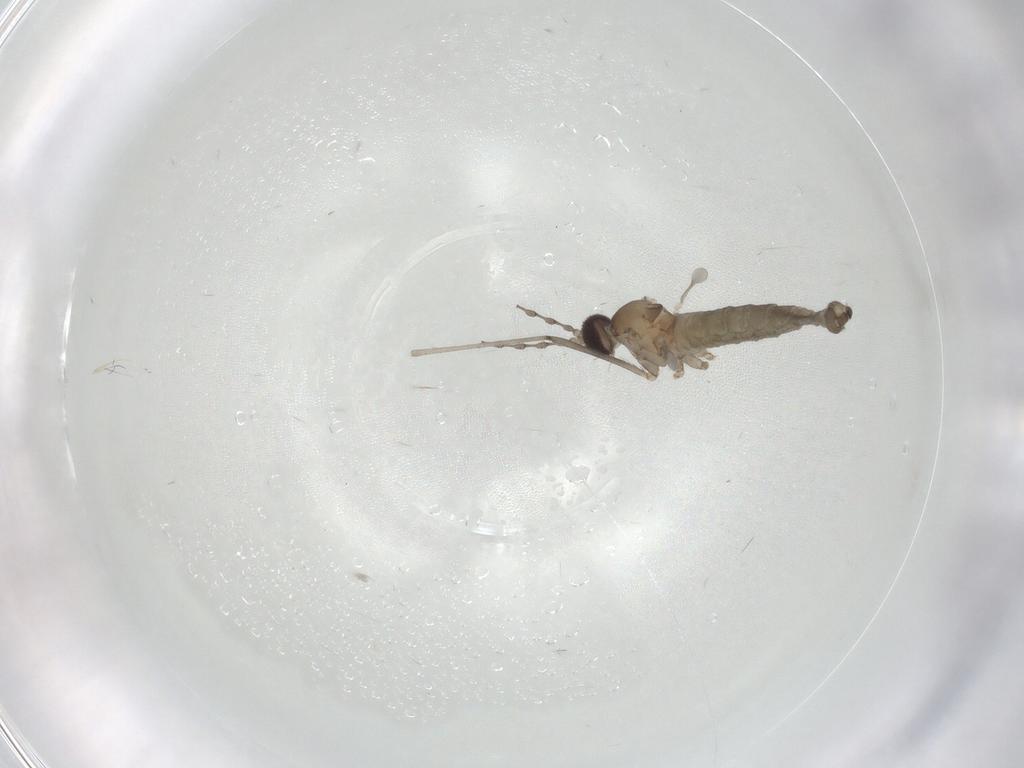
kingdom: Animalia
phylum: Arthropoda
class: Insecta
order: Diptera
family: Cecidomyiidae
